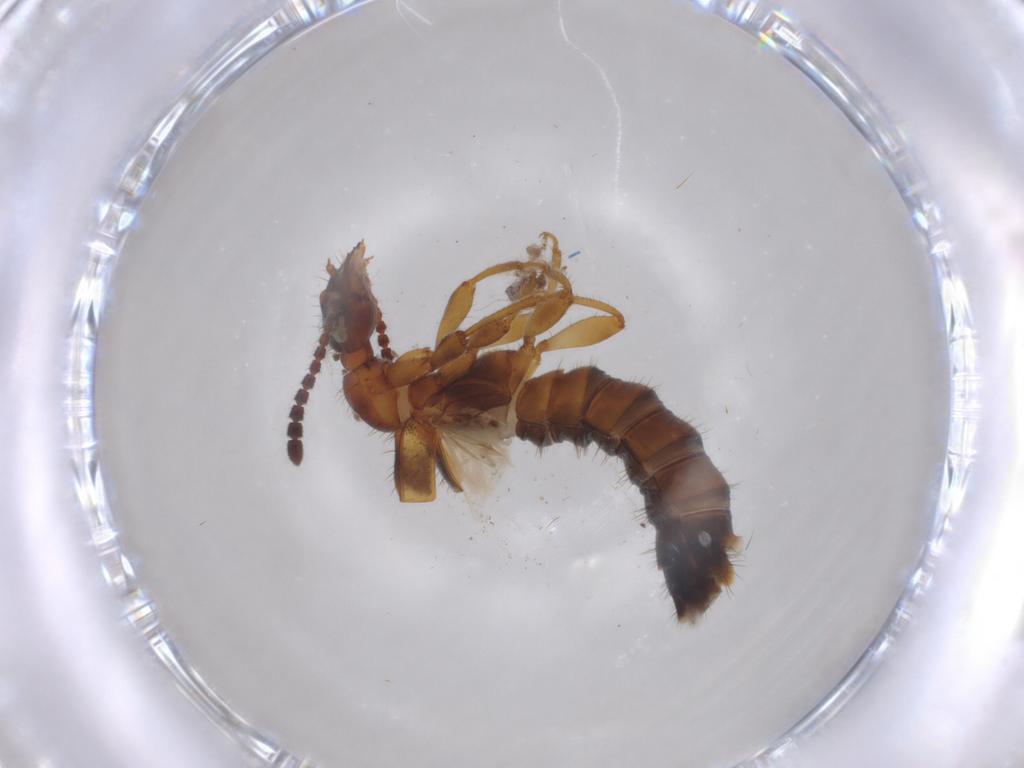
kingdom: Animalia
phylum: Arthropoda
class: Insecta
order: Coleoptera
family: Staphylinidae
